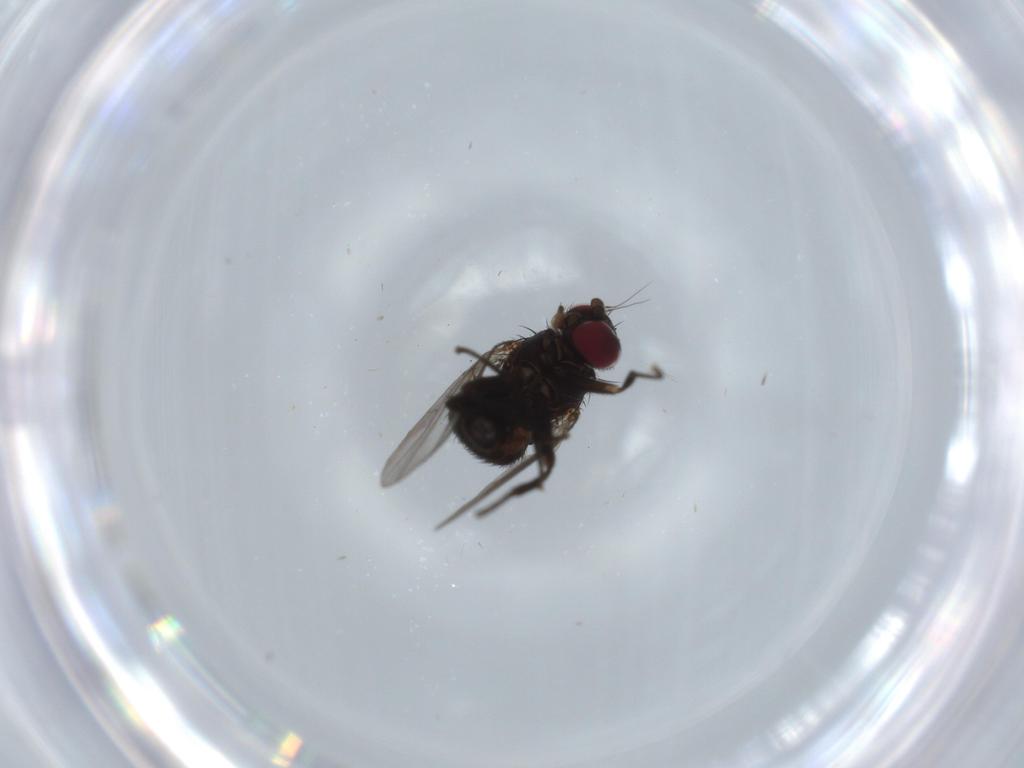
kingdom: Animalia
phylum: Arthropoda
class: Insecta
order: Diptera
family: Agromyzidae
